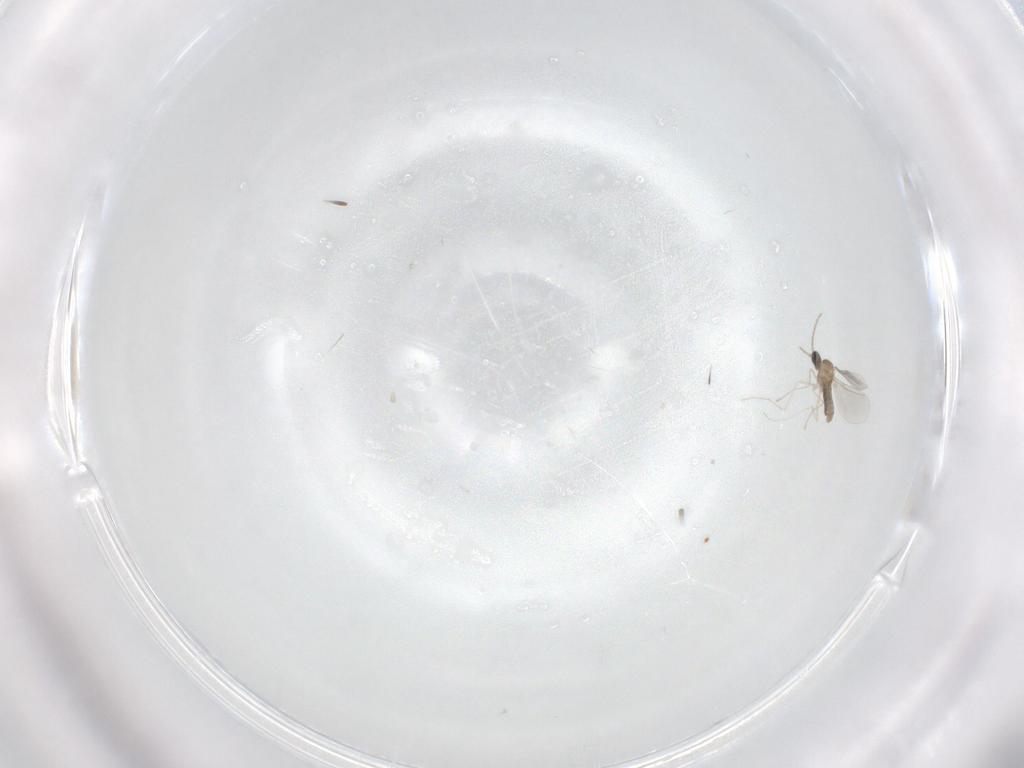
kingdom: Animalia
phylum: Arthropoda
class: Insecta
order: Diptera
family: Cecidomyiidae
